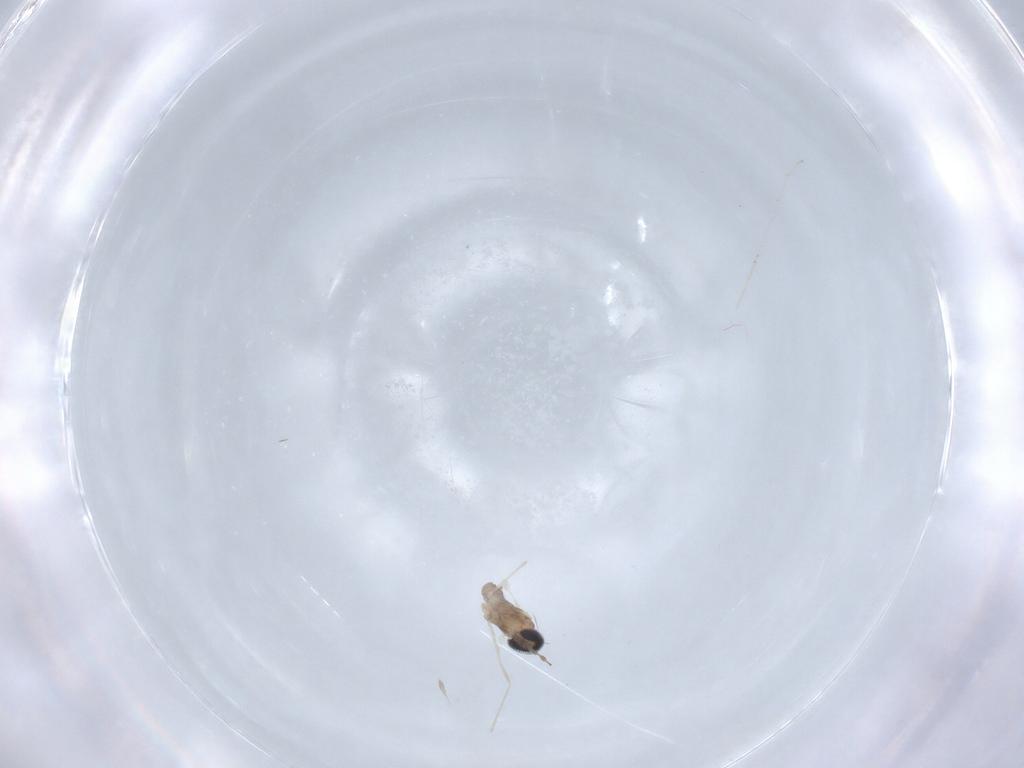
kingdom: Animalia
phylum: Arthropoda
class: Insecta
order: Diptera
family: Cecidomyiidae
